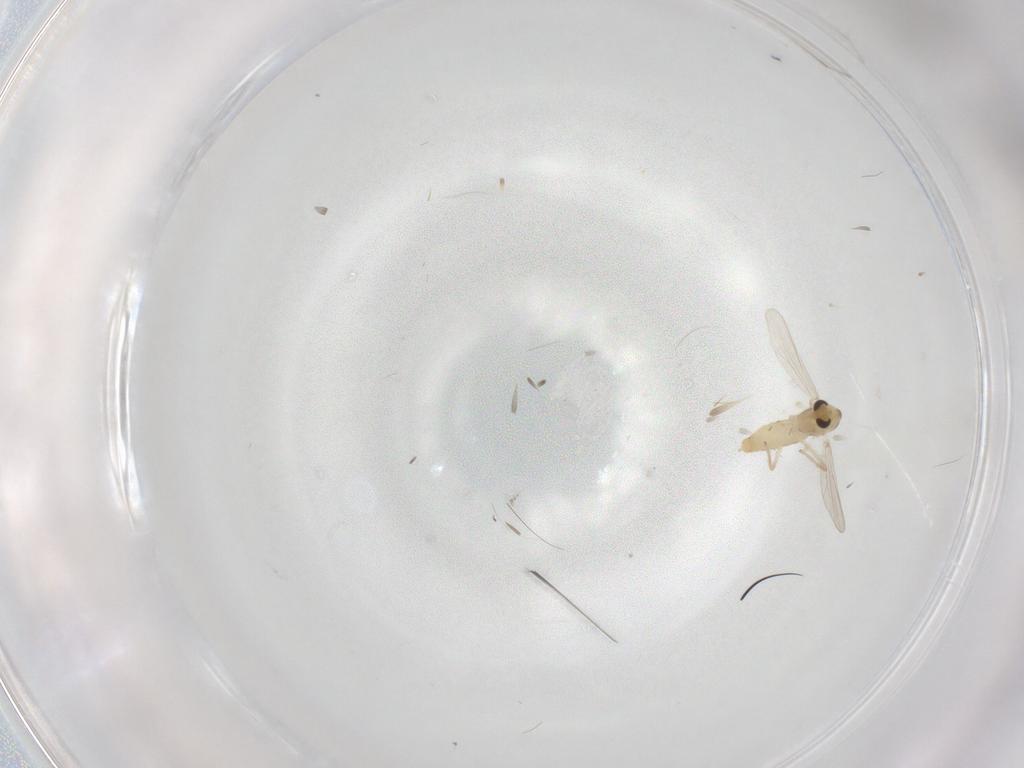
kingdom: Animalia
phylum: Arthropoda
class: Insecta
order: Diptera
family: Chironomidae
